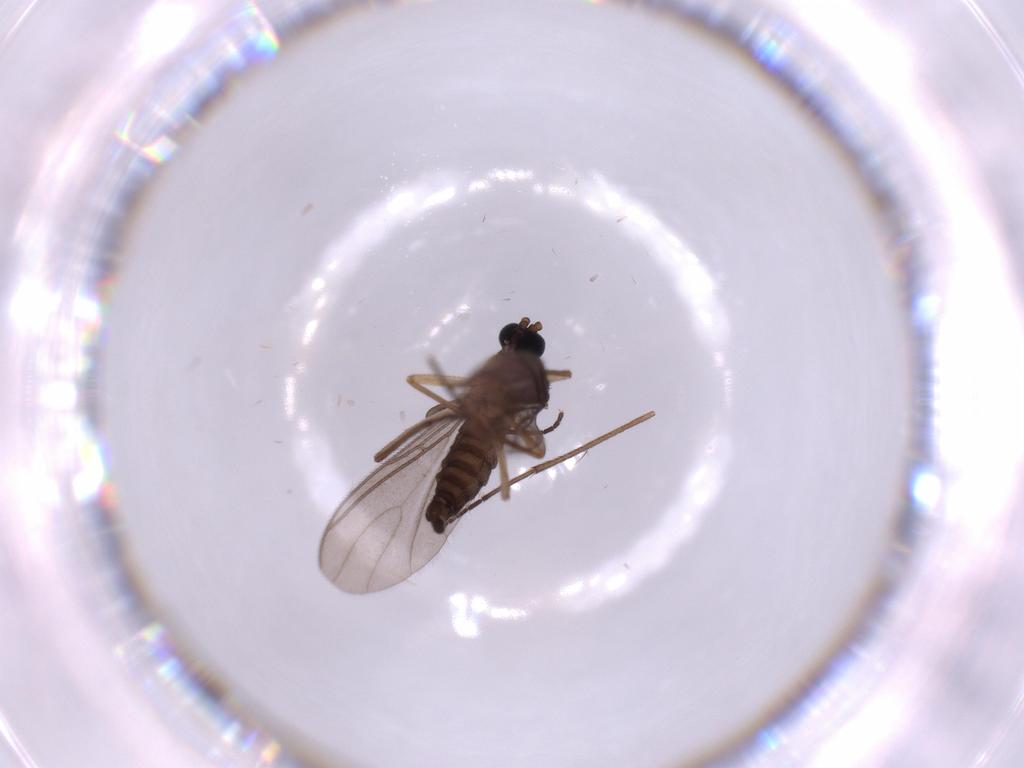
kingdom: Animalia
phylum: Arthropoda
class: Insecta
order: Diptera
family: Sciaridae
